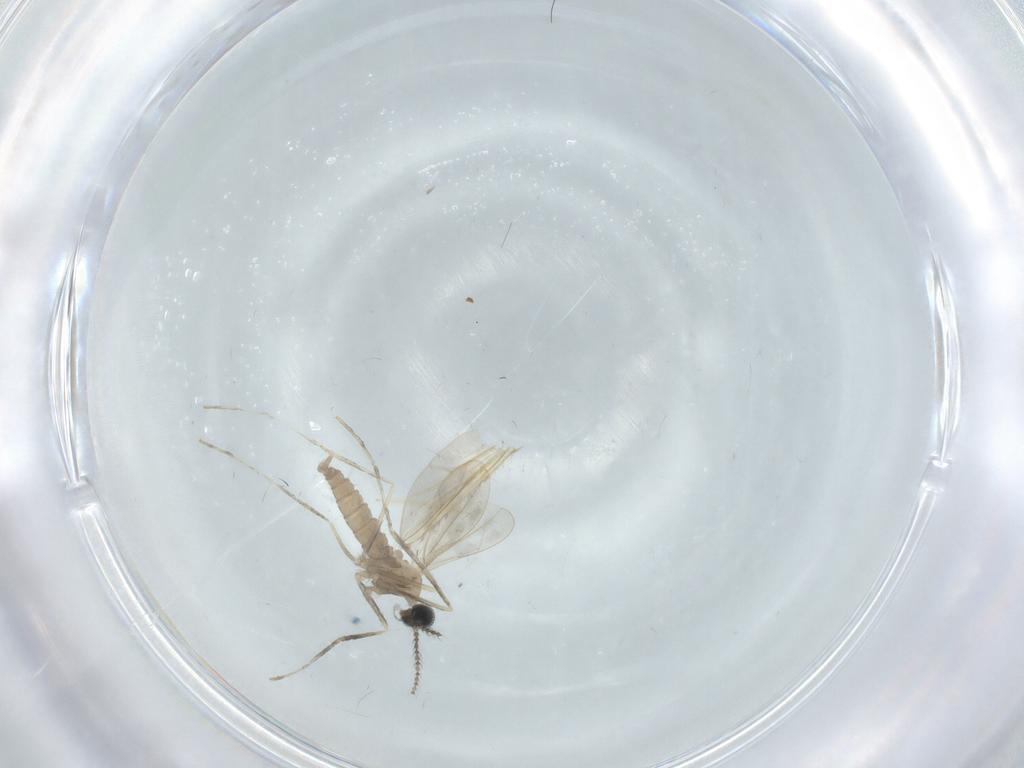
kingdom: Animalia
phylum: Arthropoda
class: Insecta
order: Diptera
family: Cecidomyiidae
